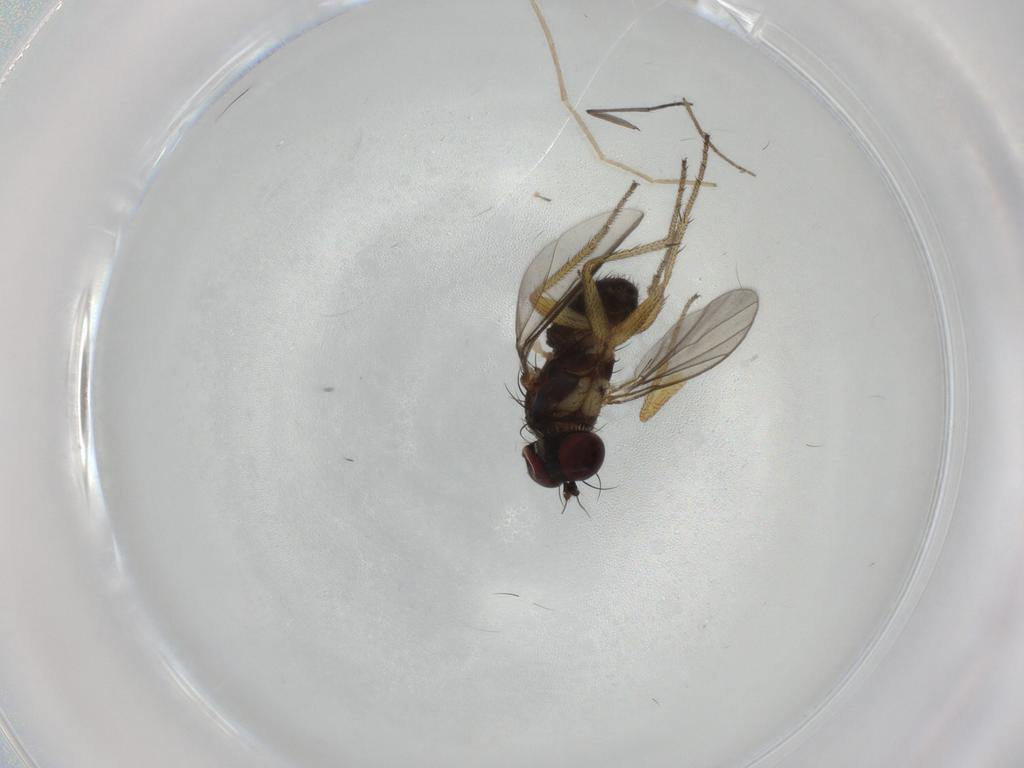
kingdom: Animalia
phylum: Arthropoda
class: Insecta
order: Diptera
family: Dolichopodidae
